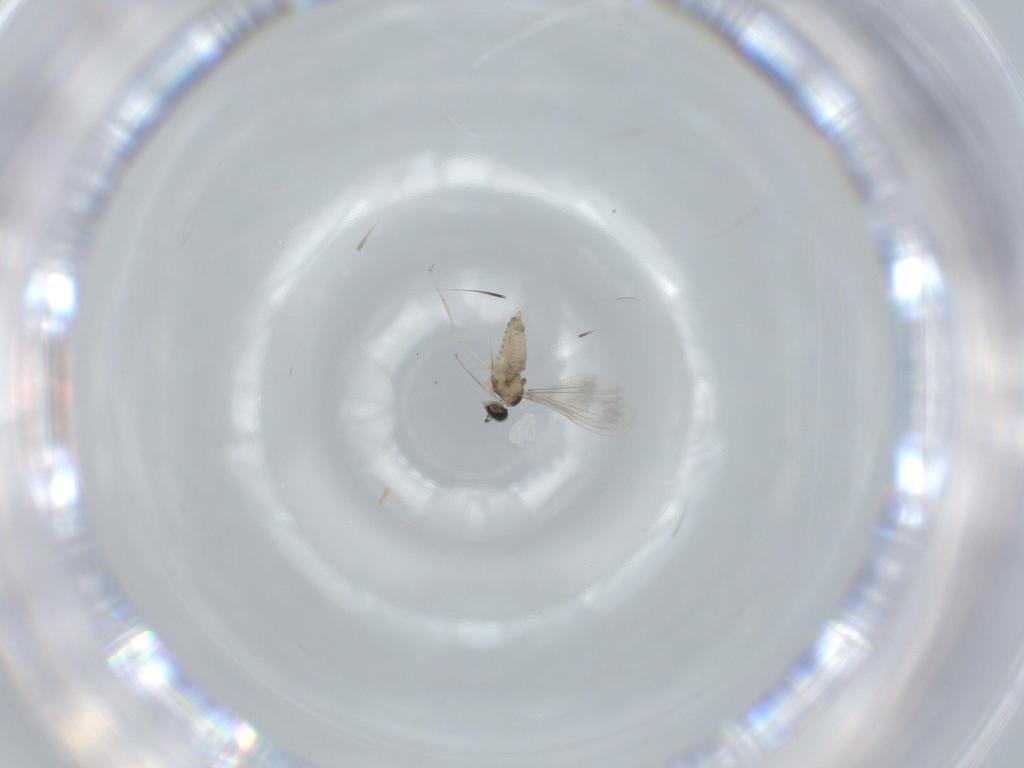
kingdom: Animalia
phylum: Arthropoda
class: Insecta
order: Diptera
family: Cecidomyiidae
